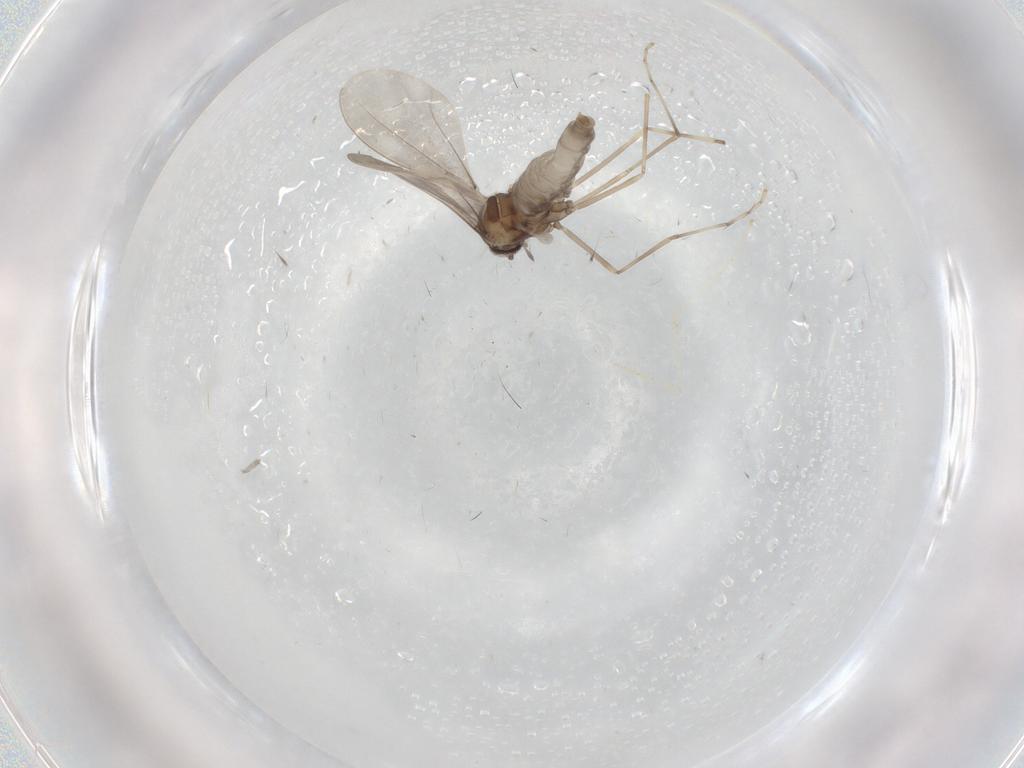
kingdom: Animalia
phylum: Arthropoda
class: Insecta
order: Diptera
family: Cecidomyiidae
